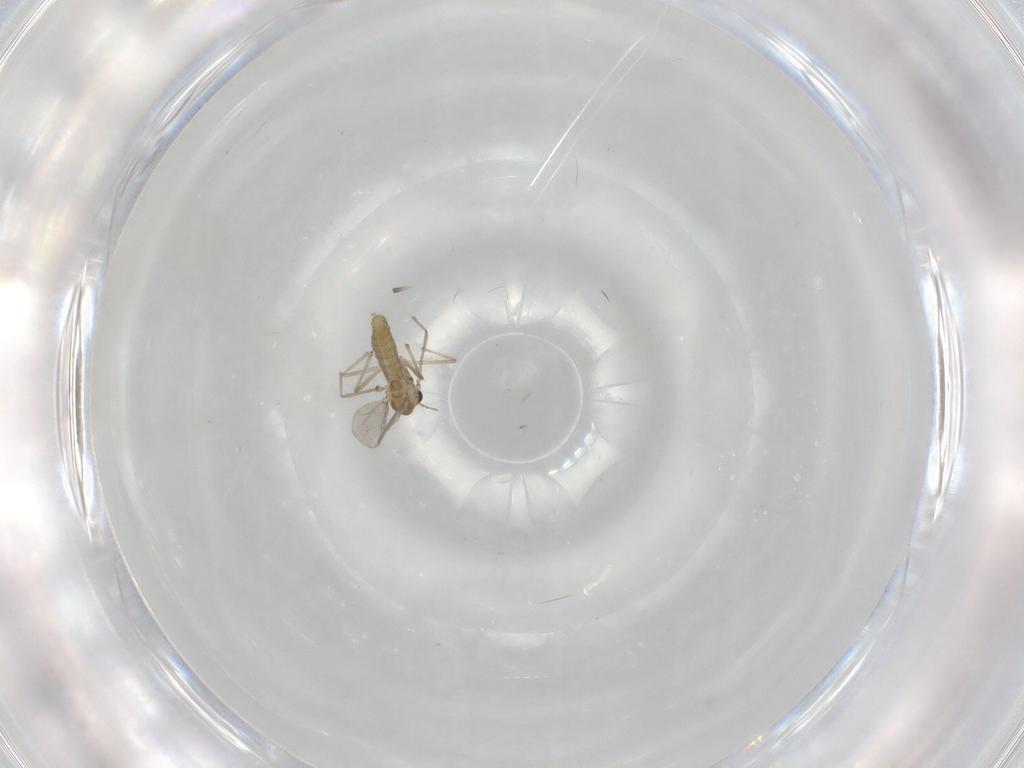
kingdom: Animalia
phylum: Arthropoda
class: Insecta
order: Diptera
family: Chironomidae
